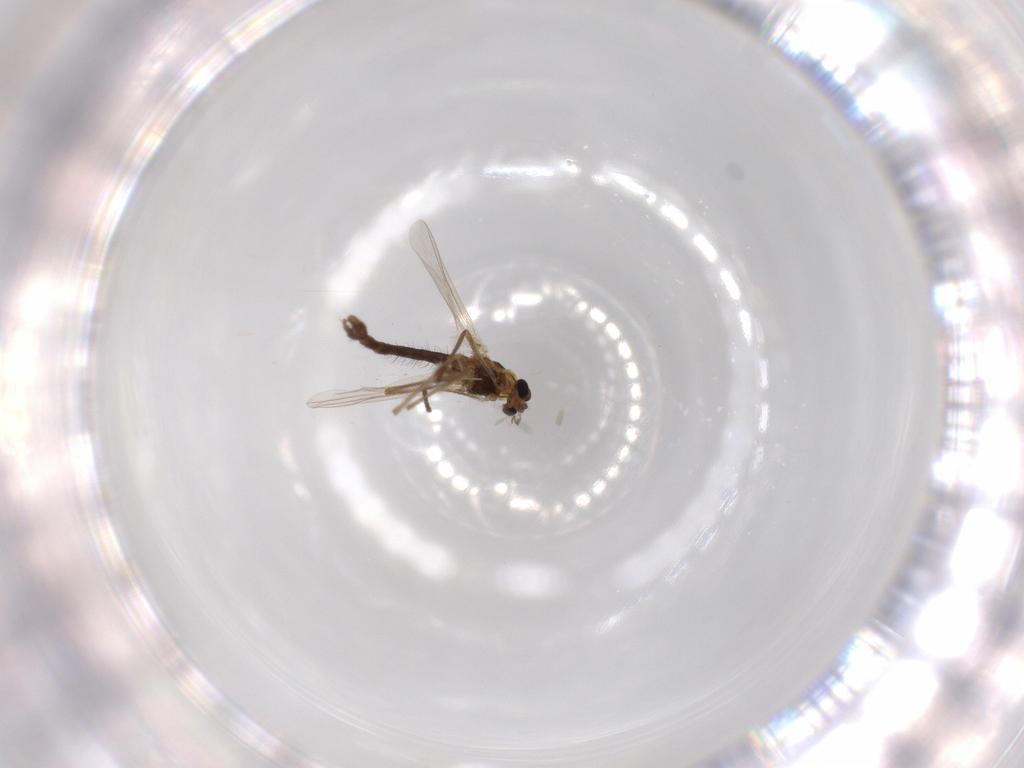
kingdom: Animalia
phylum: Arthropoda
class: Insecta
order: Diptera
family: Chironomidae
